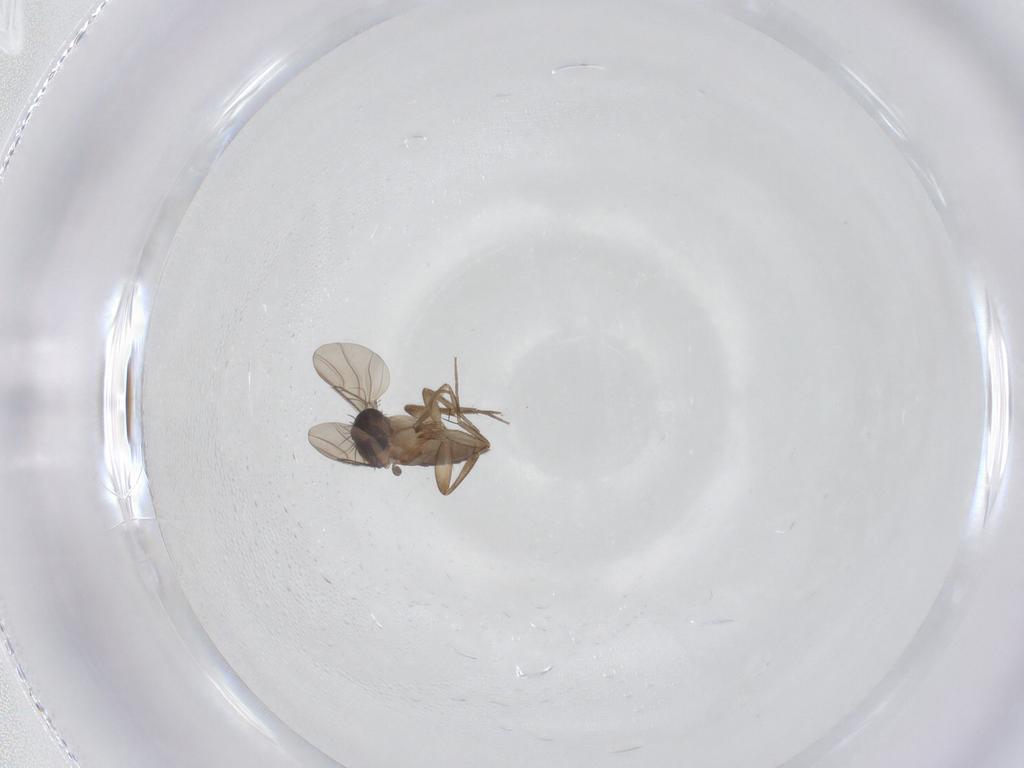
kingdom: Animalia
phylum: Arthropoda
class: Insecta
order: Diptera
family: Phoridae
